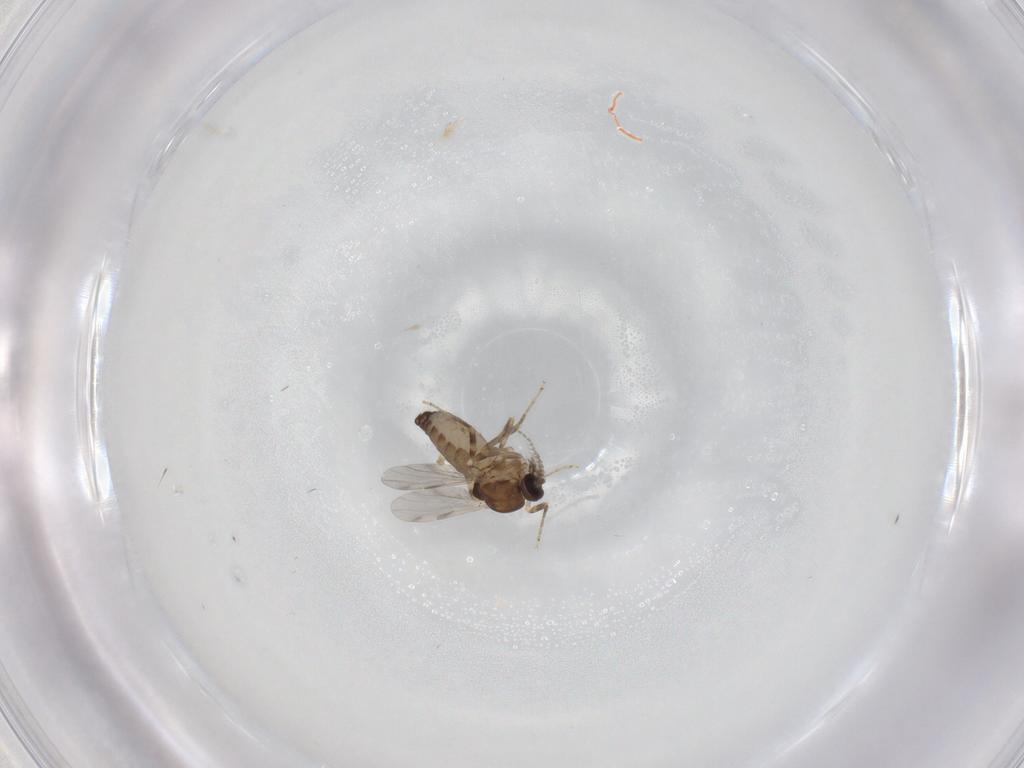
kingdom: Animalia
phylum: Arthropoda
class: Insecta
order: Diptera
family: Ceratopogonidae
